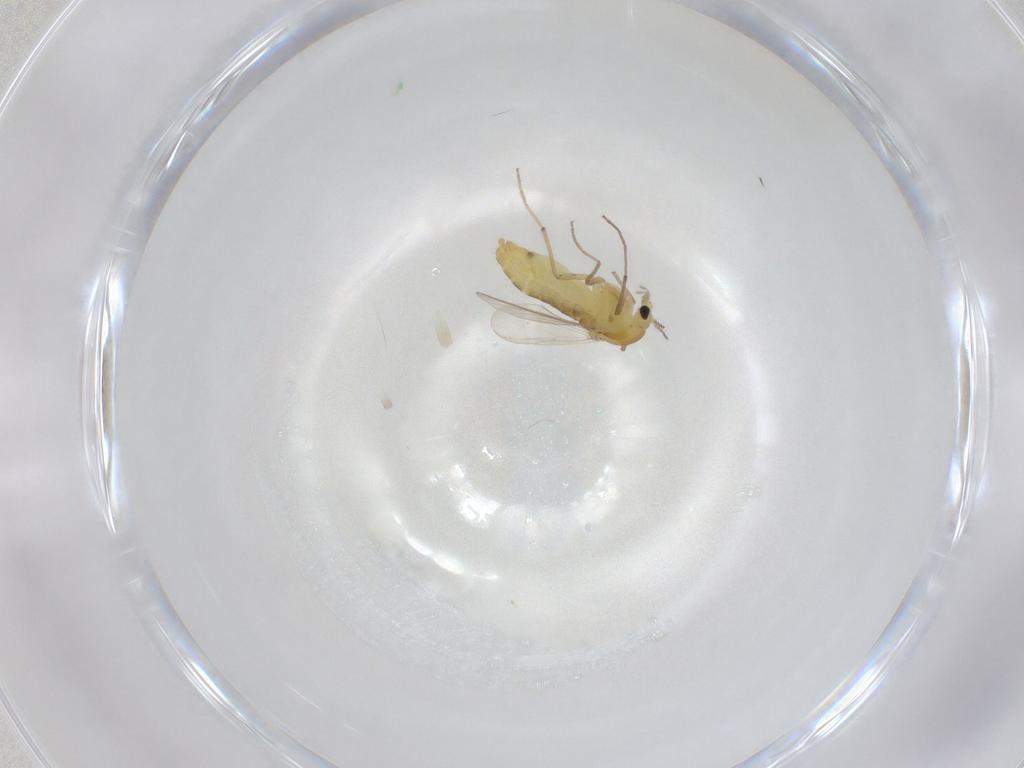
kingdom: Animalia
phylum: Arthropoda
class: Insecta
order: Diptera
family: Chironomidae
